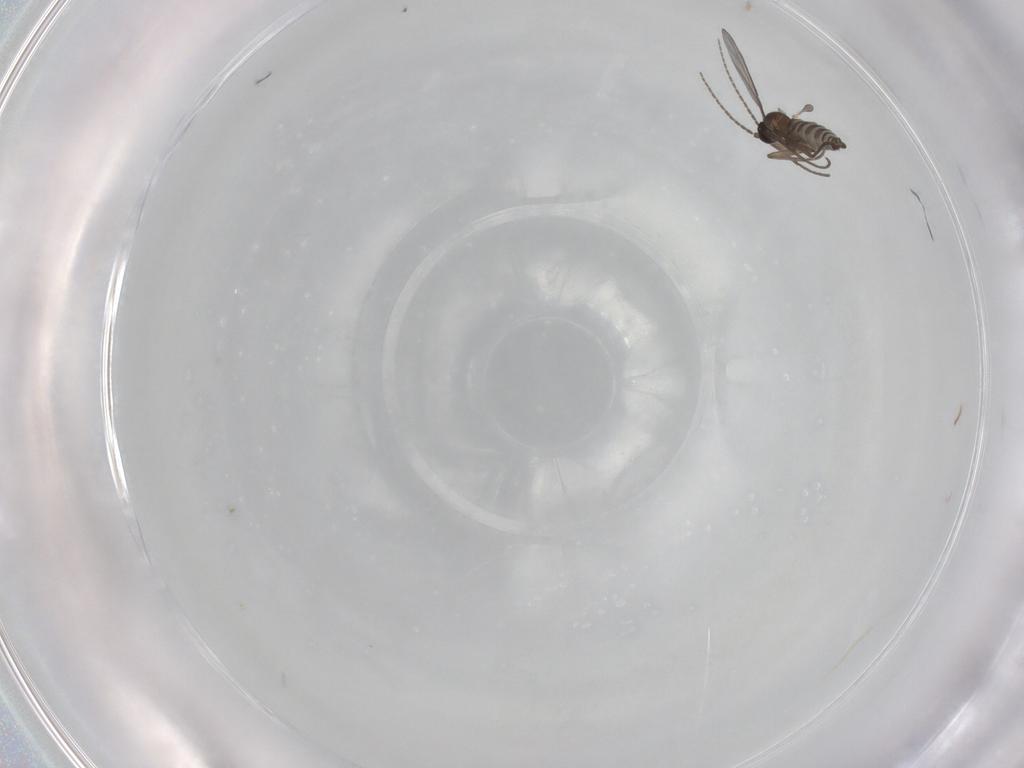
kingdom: Animalia
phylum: Arthropoda
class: Insecta
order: Diptera
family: Sciaridae
